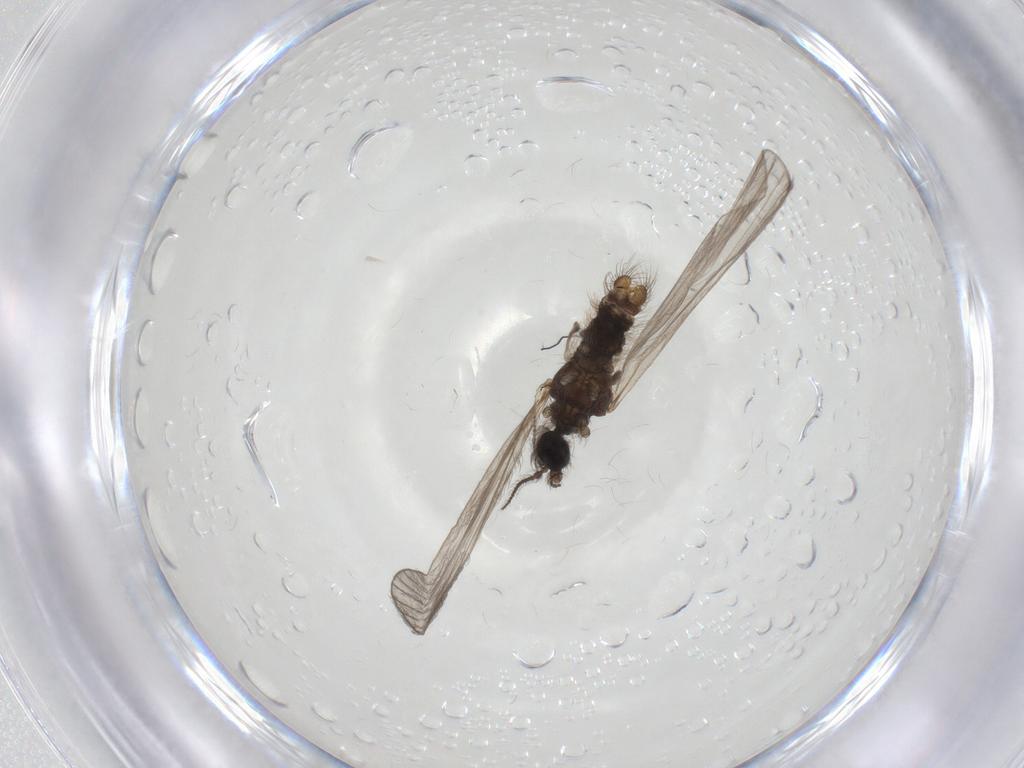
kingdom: Animalia
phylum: Arthropoda
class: Insecta
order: Diptera
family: Limoniidae
